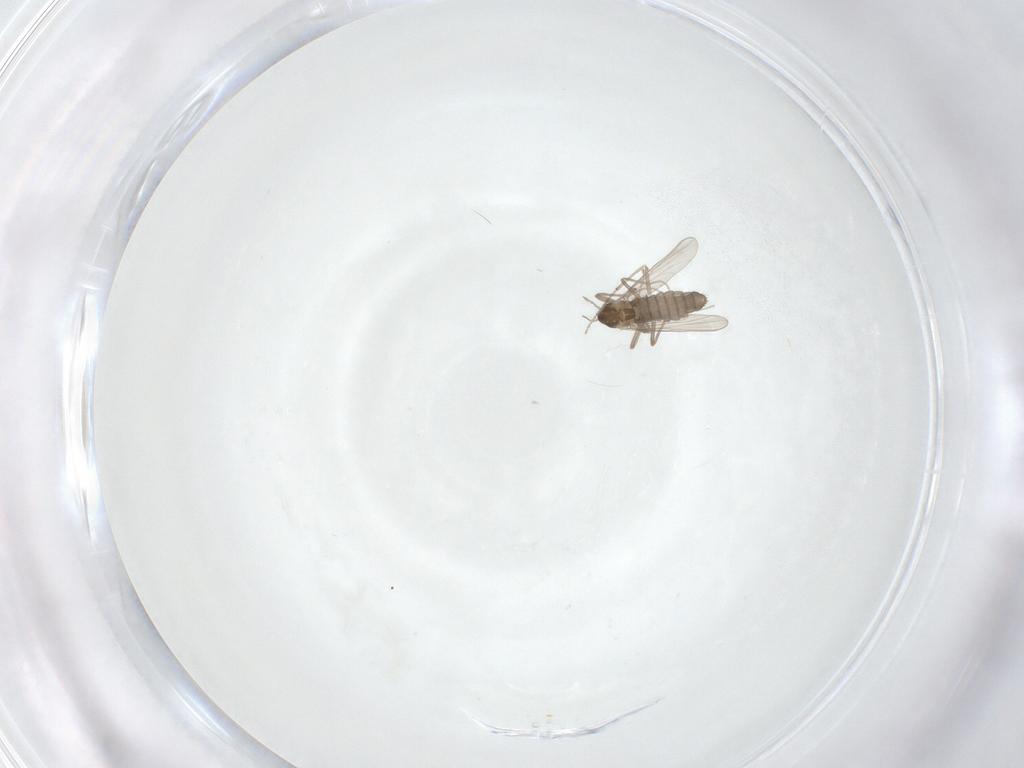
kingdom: Animalia
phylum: Arthropoda
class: Insecta
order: Diptera
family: Chironomidae
